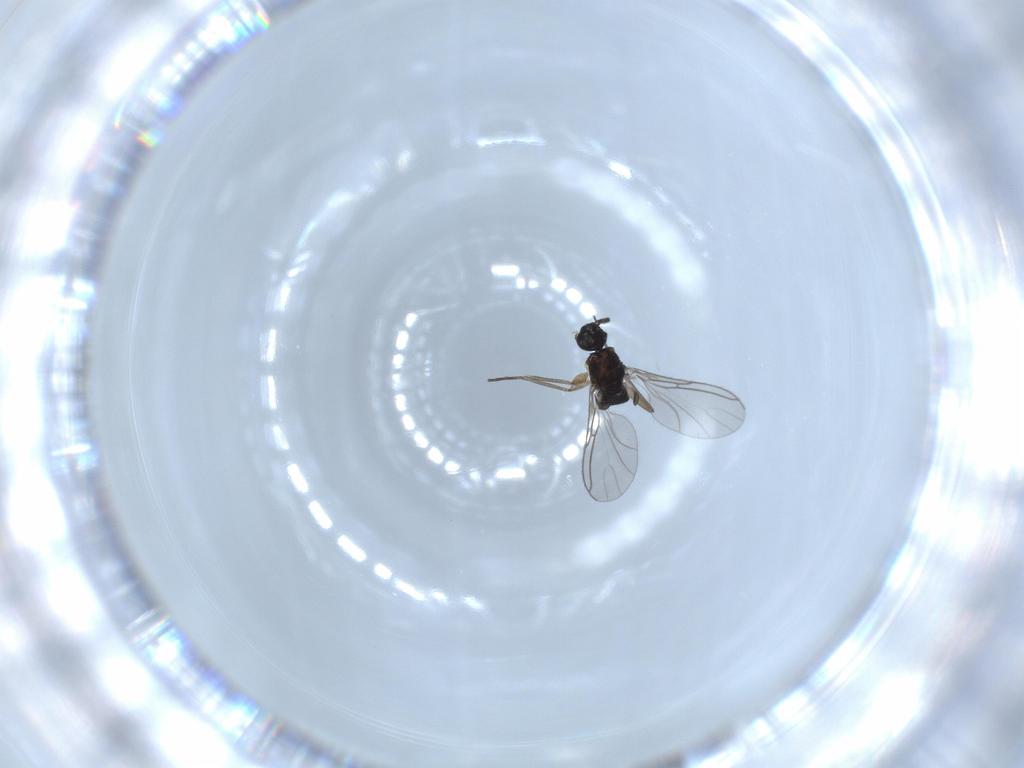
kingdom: Animalia
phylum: Arthropoda
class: Insecta
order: Diptera
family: Sciaridae
